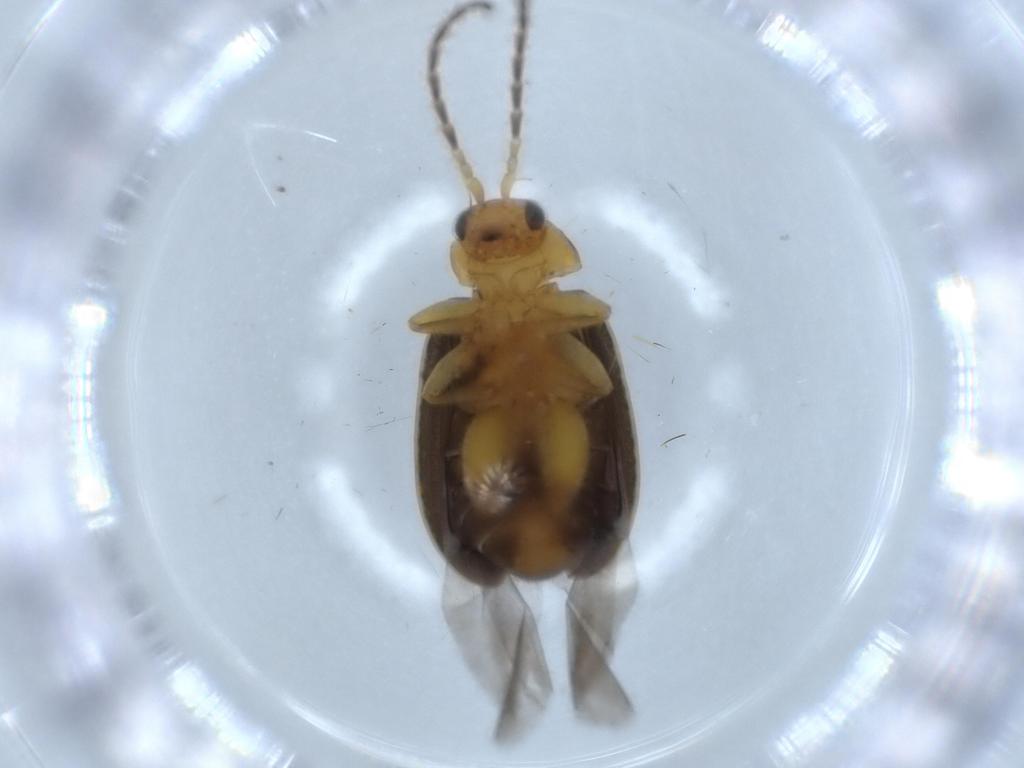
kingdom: Animalia
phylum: Arthropoda
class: Insecta
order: Coleoptera
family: Chrysomelidae
